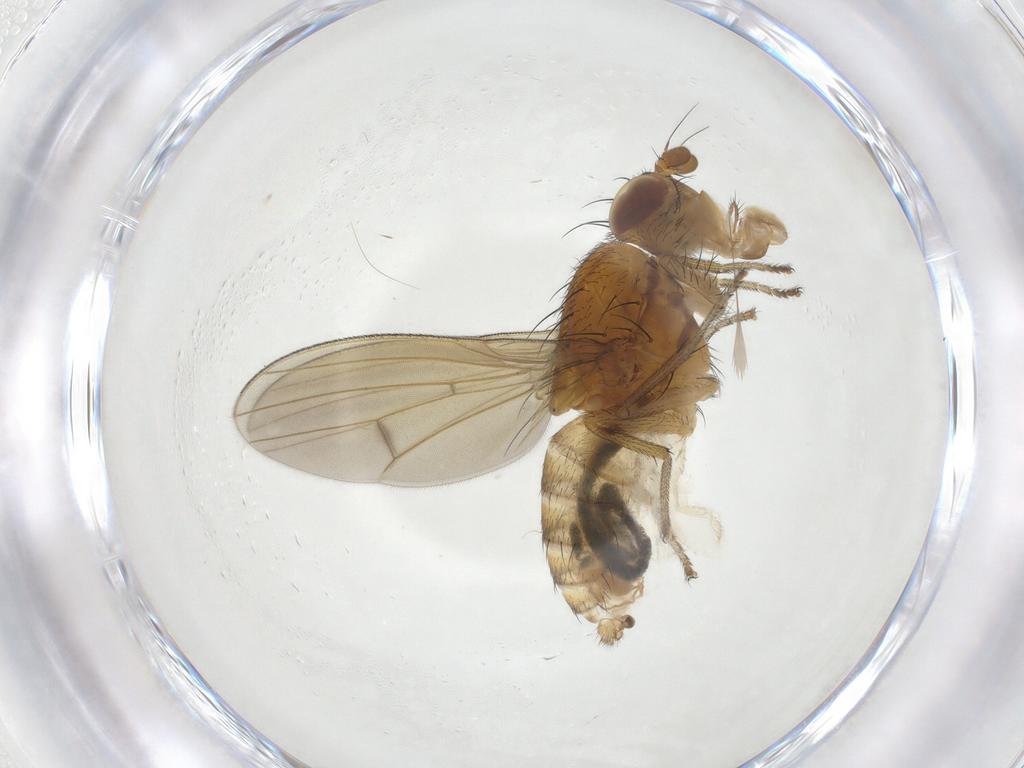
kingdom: Animalia
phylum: Arthropoda
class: Insecta
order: Diptera
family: Lauxaniidae
